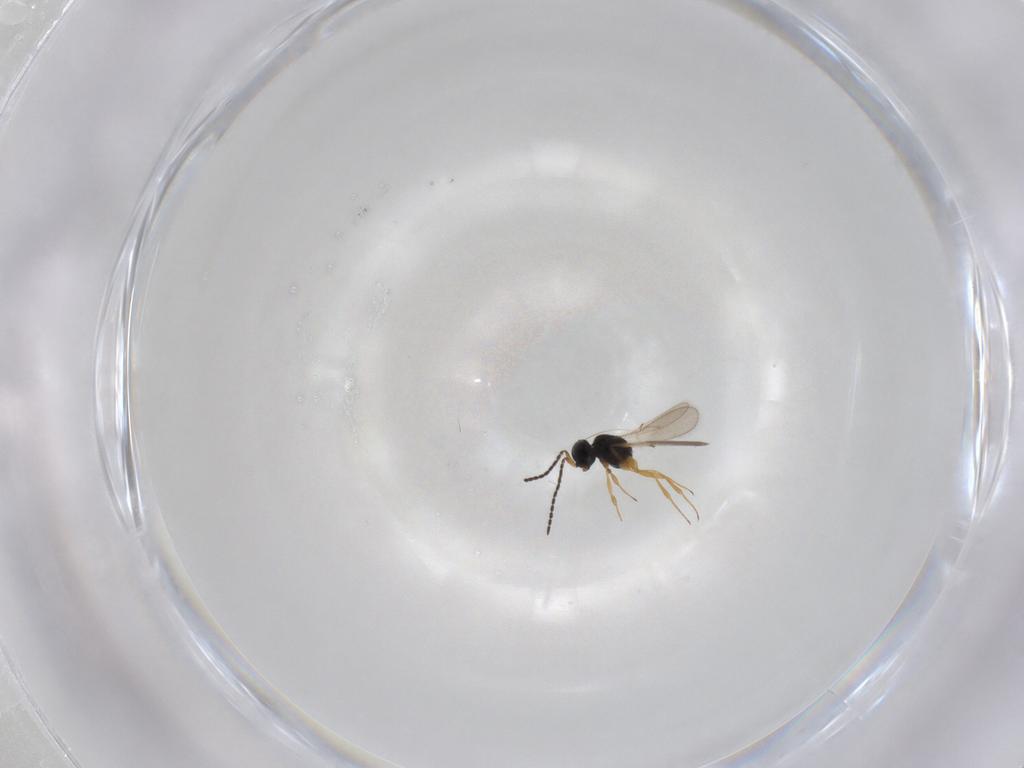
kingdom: Animalia
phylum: Arthropoda
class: Insecta
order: Hymenoptera
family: Scelionidae
